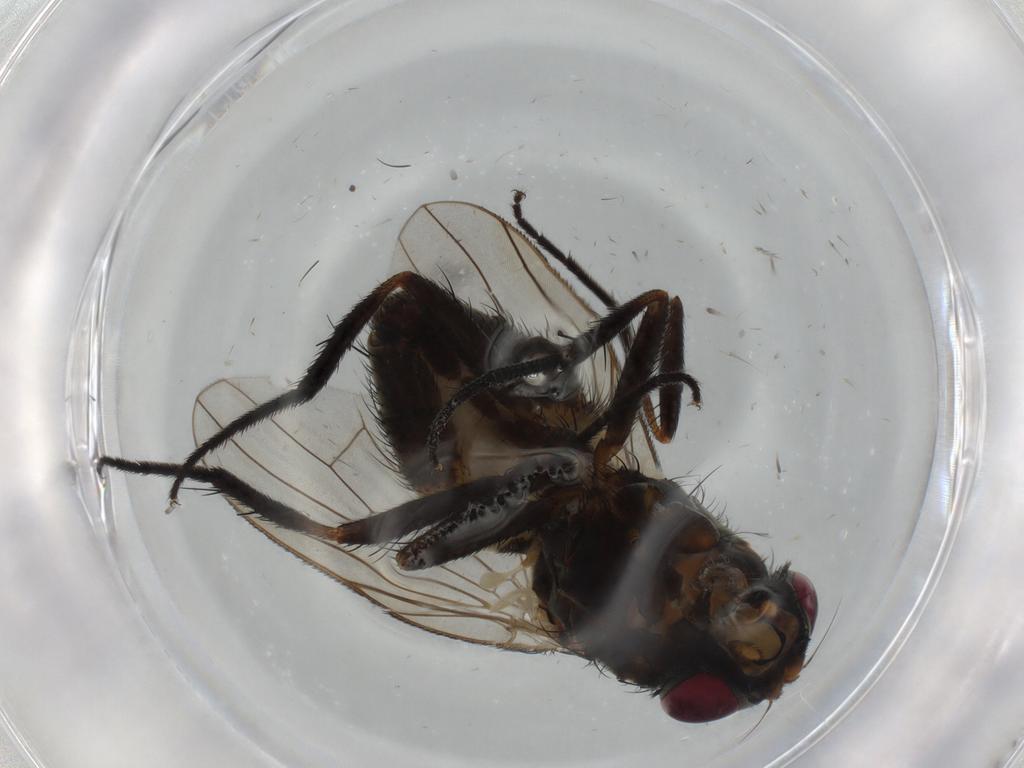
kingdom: Animalia
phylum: Arthropoda
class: Insecta
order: Diptera
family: Fannia
